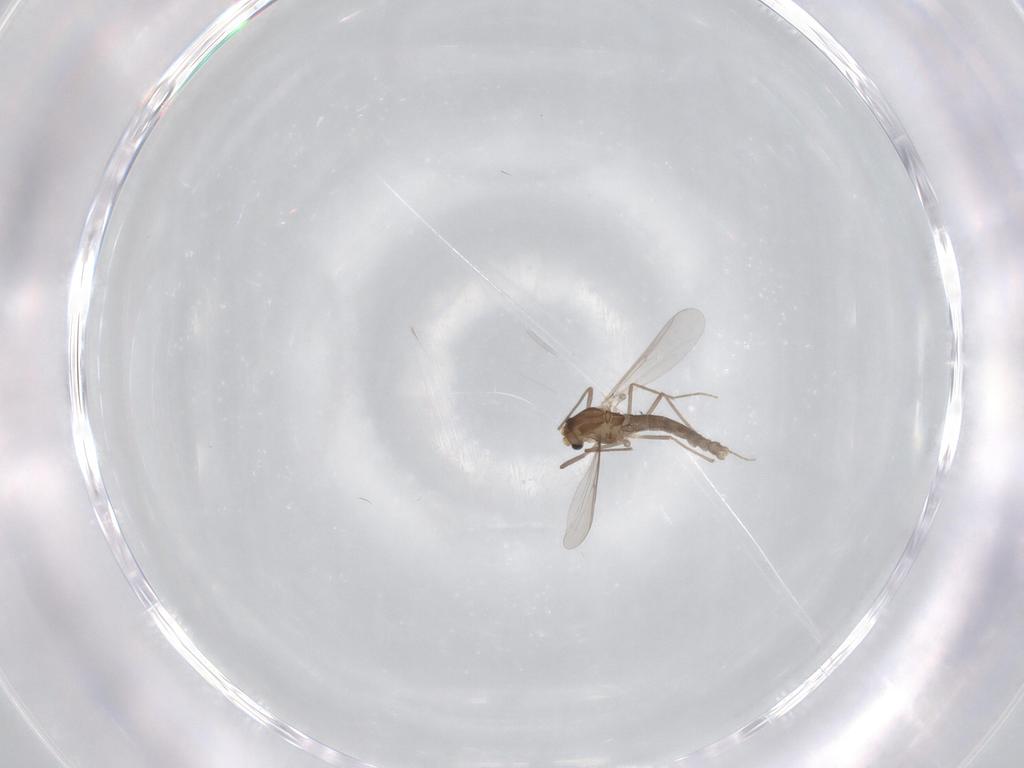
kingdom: Animalia
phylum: Arthropoda
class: Insecta
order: Diptera
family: Chironomidae
